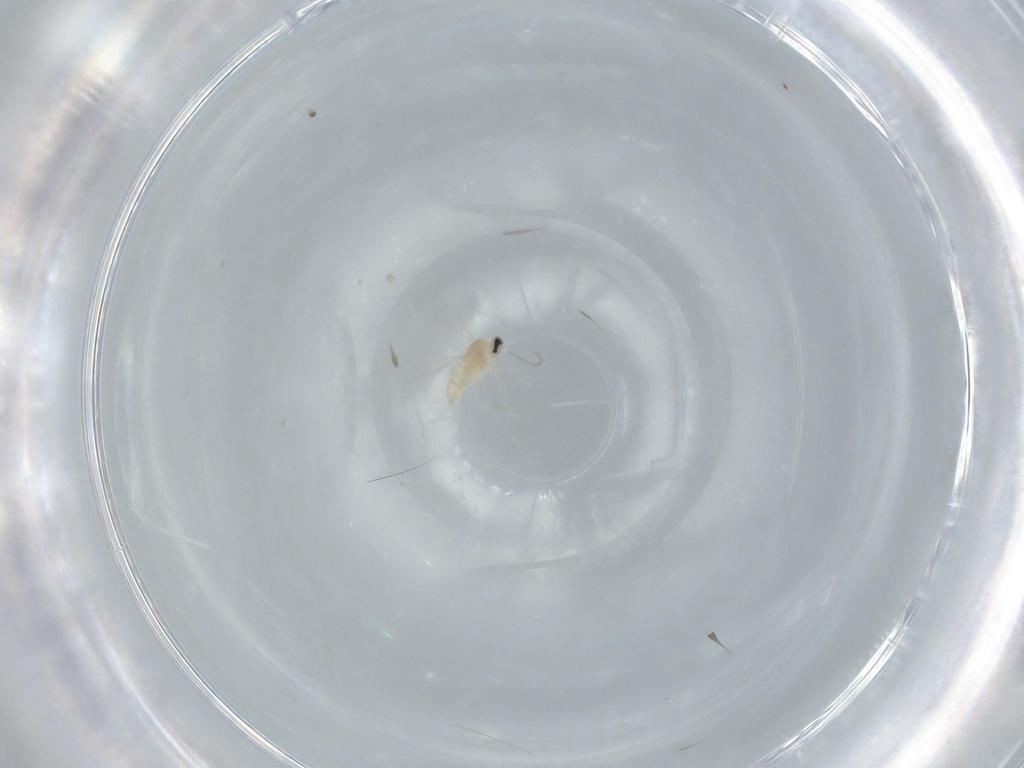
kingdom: Animalia
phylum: Arthropoda
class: Insecta
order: Diptera
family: Cecidomyiidae
